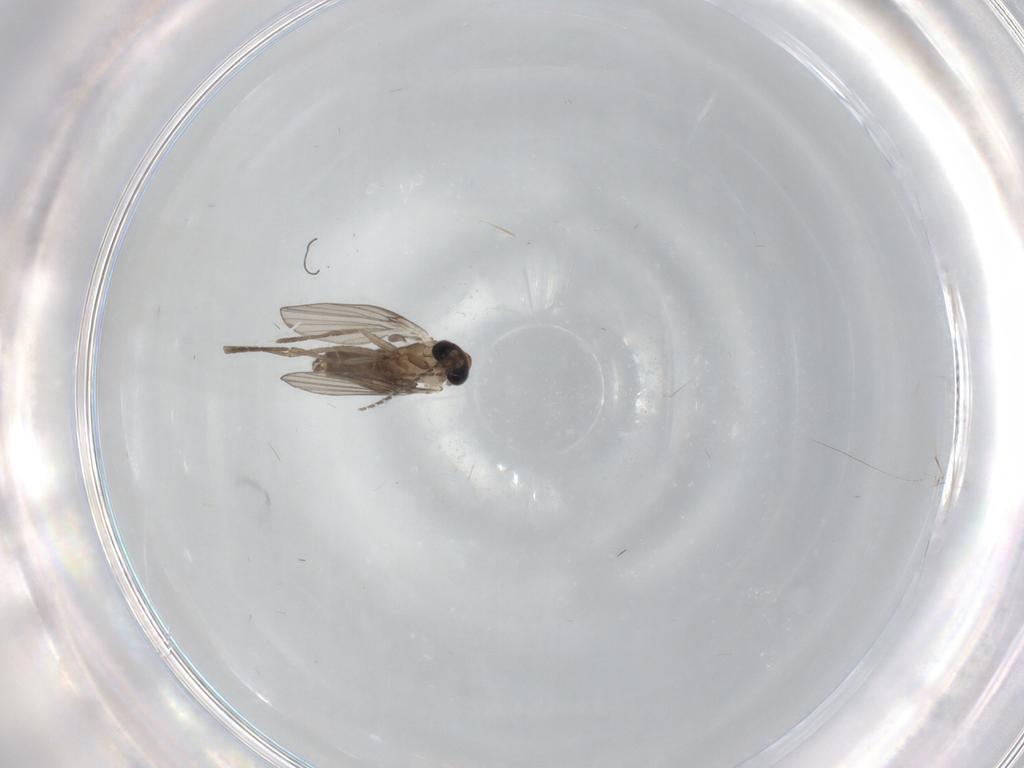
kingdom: Animalia
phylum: Arthropoda
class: Insecta
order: Diptera
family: Psychodidae
